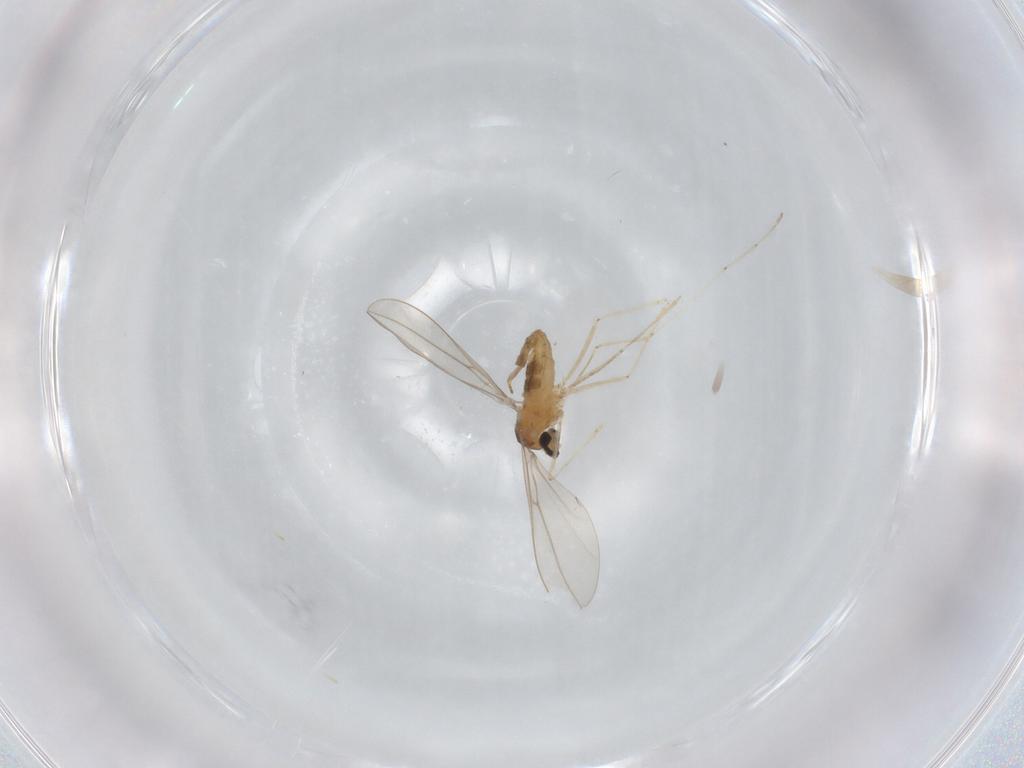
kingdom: Animalia
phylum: Arthropoda
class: Insecta
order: Diptera
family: Cecidomyiidae
